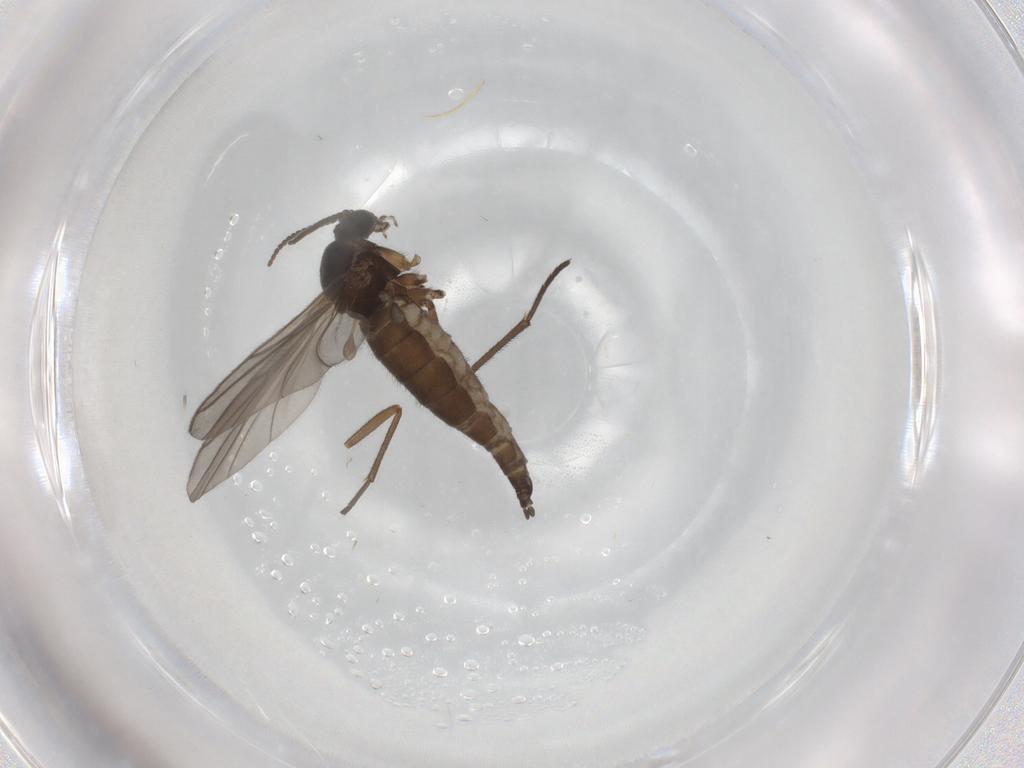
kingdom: Animalia
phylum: Arthropoda
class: Insecta
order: Diptera
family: Sciaridae
